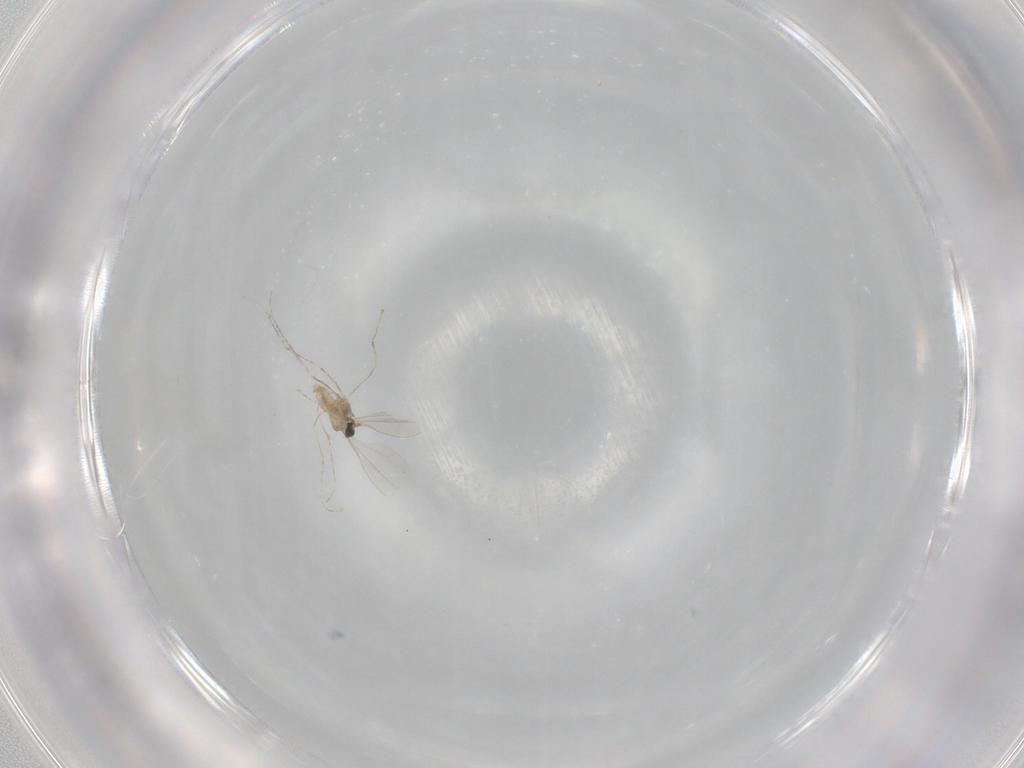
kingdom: Animalia
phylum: Arthropoda
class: Insecta
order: Diptera
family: Cecidomyiidae
